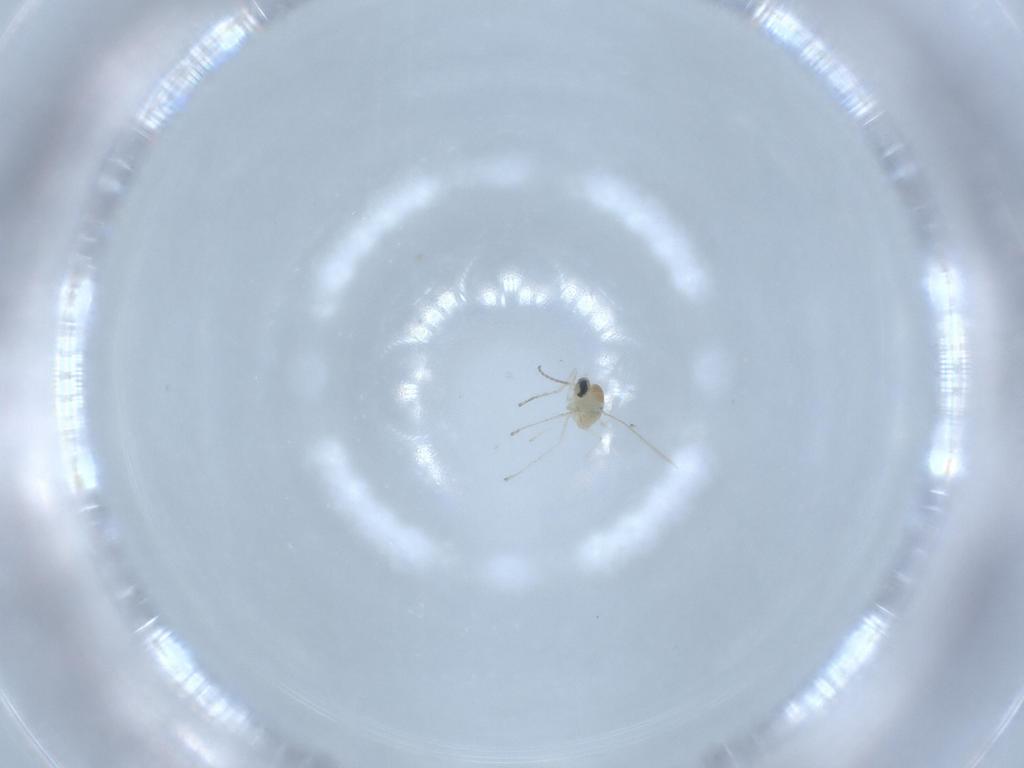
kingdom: Animalia
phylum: Arthropoda
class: Insecta
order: Diptera
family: Cecidomyiidae
